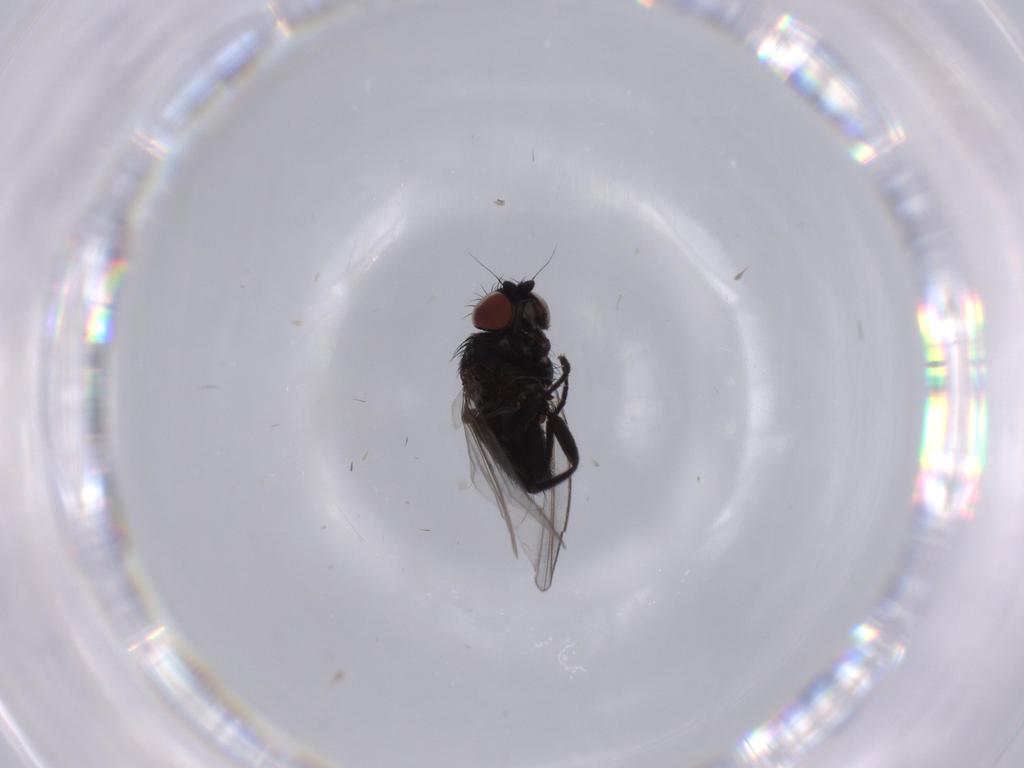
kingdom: Animalia
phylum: Arthropoda
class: Insecta
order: Diptera
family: Milichiidae
